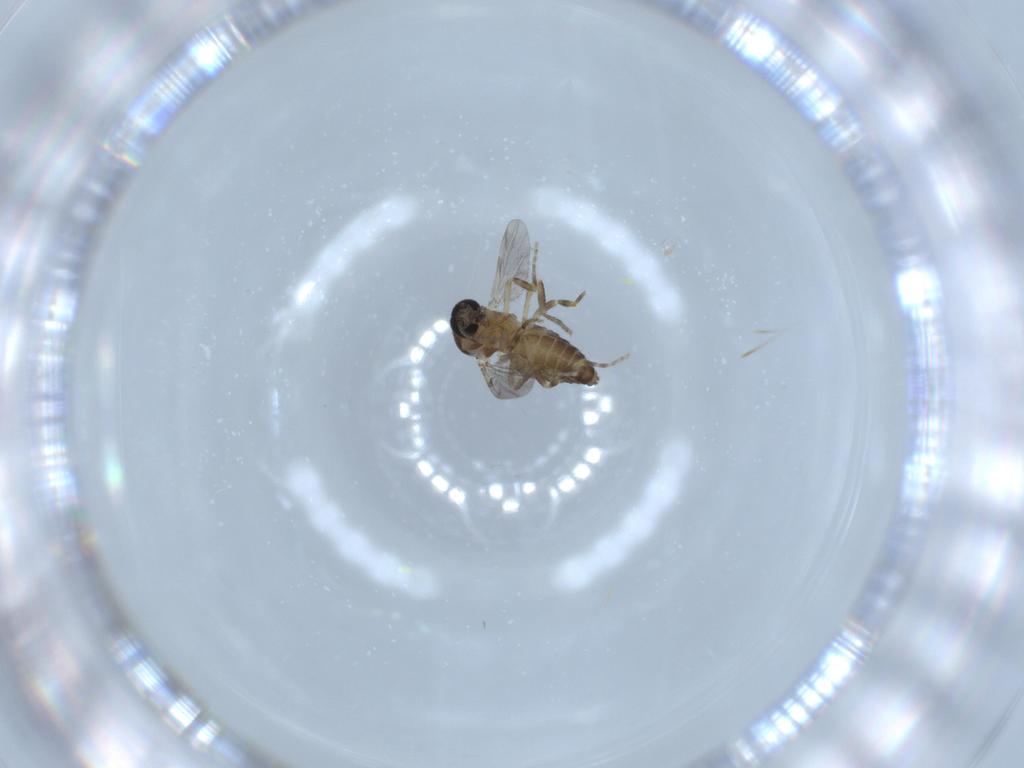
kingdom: Animalia
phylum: Arthropoda
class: Insecta
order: Diptera
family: Ceratopogonidae
